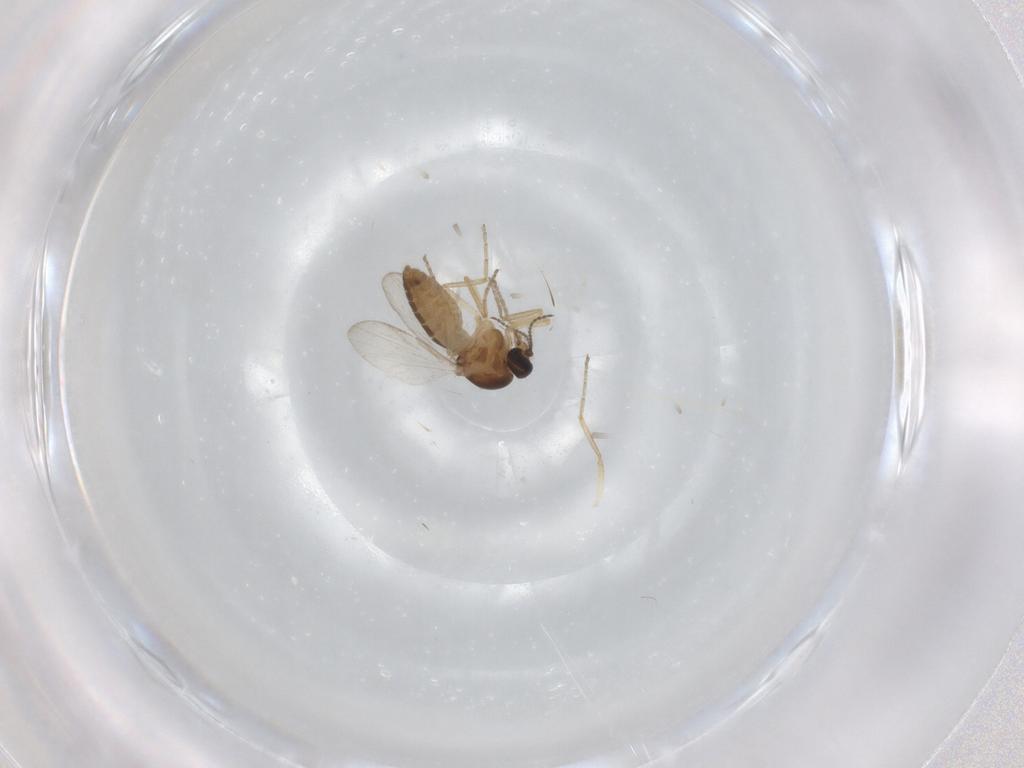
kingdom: Animalia
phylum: Arthropoda
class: Insecta
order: Diptera
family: Ceratopogonidae
